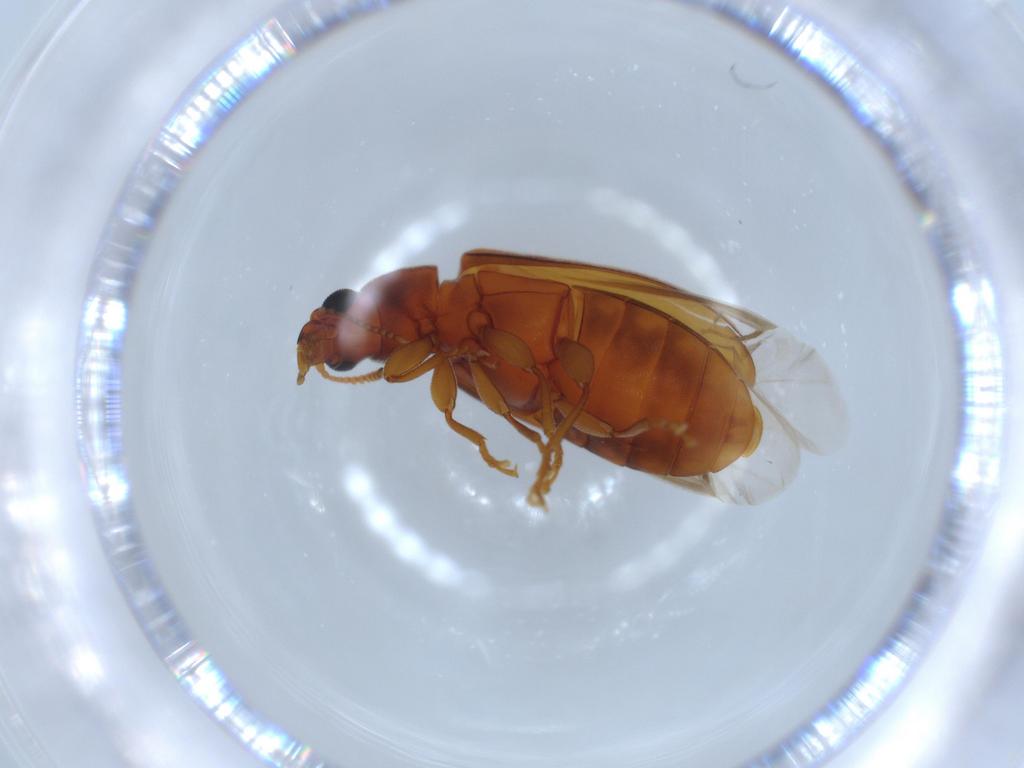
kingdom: Animalia
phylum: Arthropoda
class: Insecta
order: Coleoptera
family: Mycteridae
